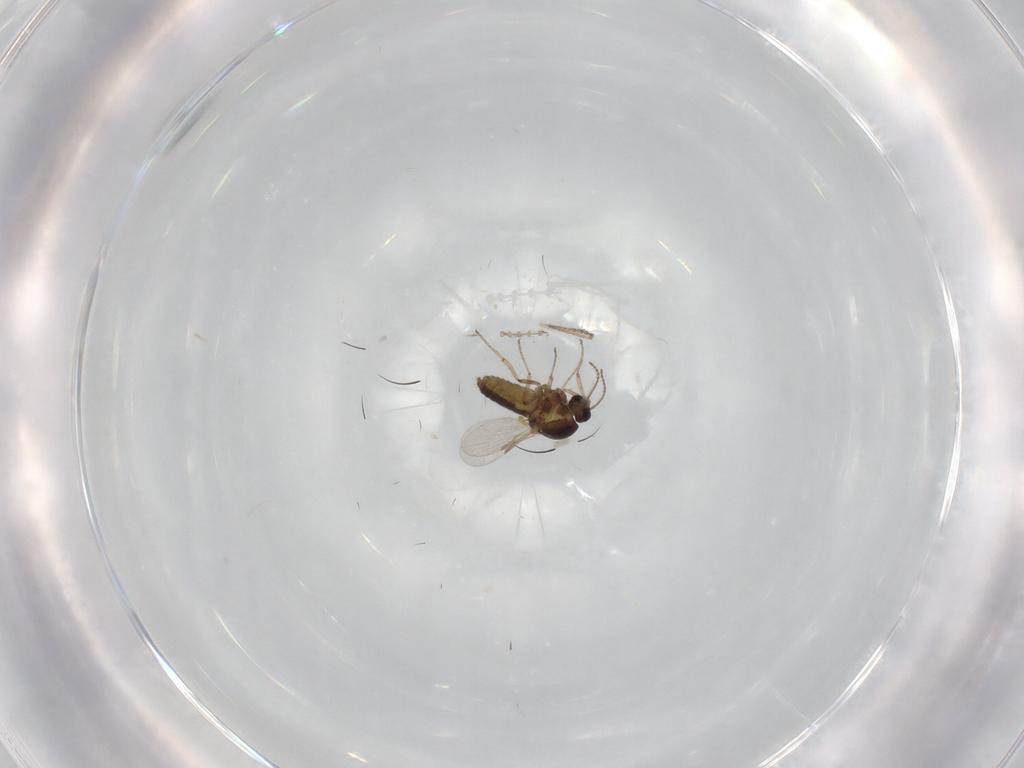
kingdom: Animalia
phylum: Arthropoda
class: Insecta
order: Diptera
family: Ceratopogonidae
